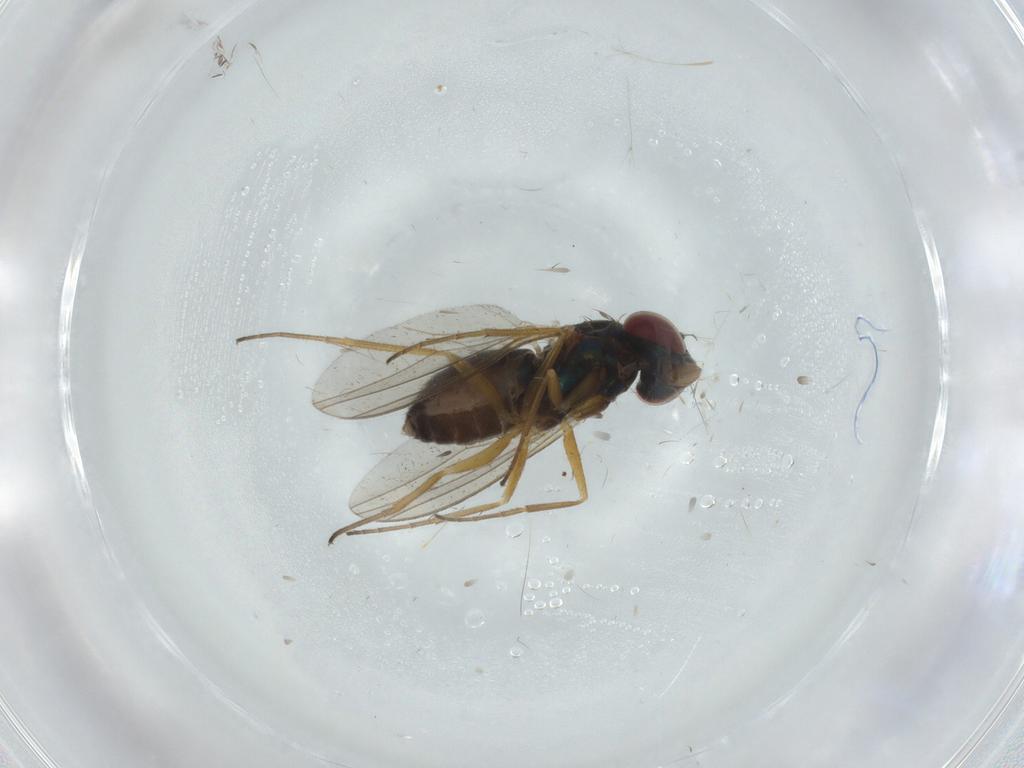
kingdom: Animalia
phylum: Arthropoda
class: Insecta
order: Diptera
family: Dolichopodidae
